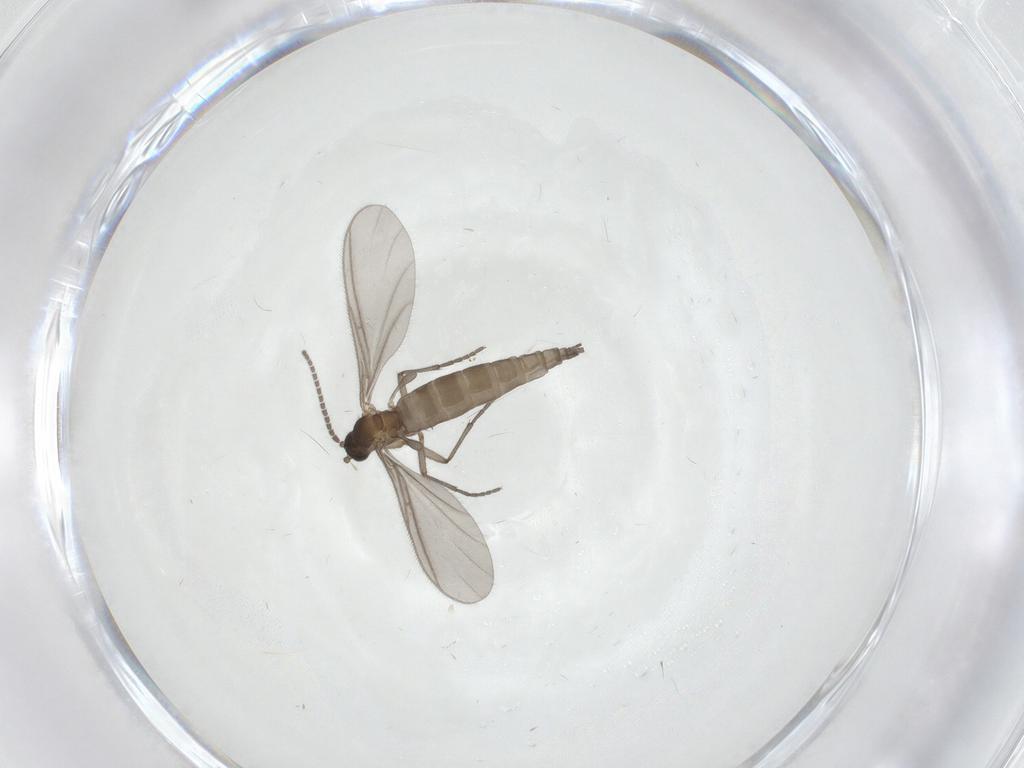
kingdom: Animalia
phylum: Arthropoda
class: Insecta
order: Diptera
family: Sciaridae
